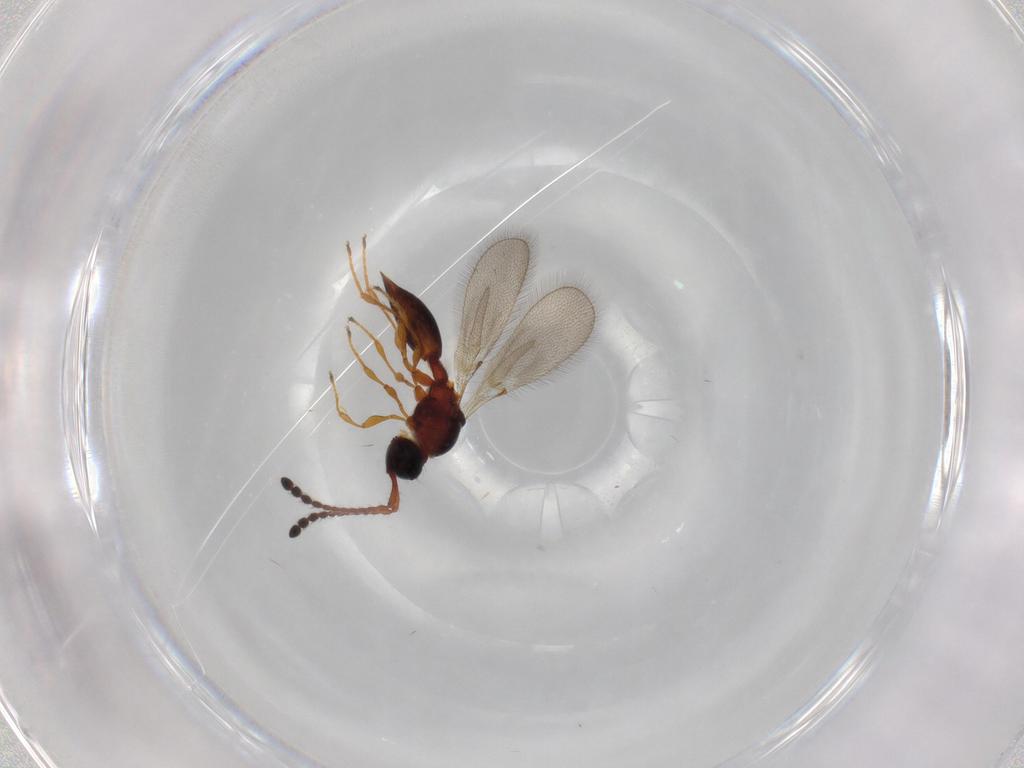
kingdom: Animalia
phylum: Arthropoda
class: Insecta
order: Hymenoptera
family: Diapriidae
